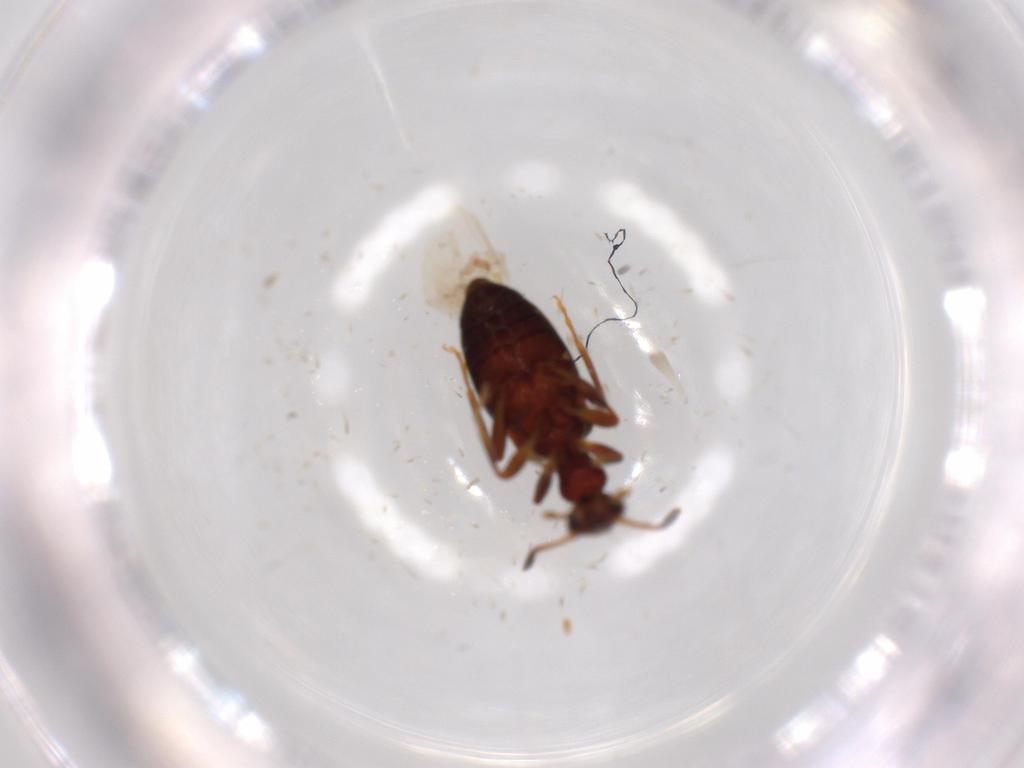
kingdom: Animalia
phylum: Arthropoda
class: Insecta
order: Coleoptera
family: Anthicidae
